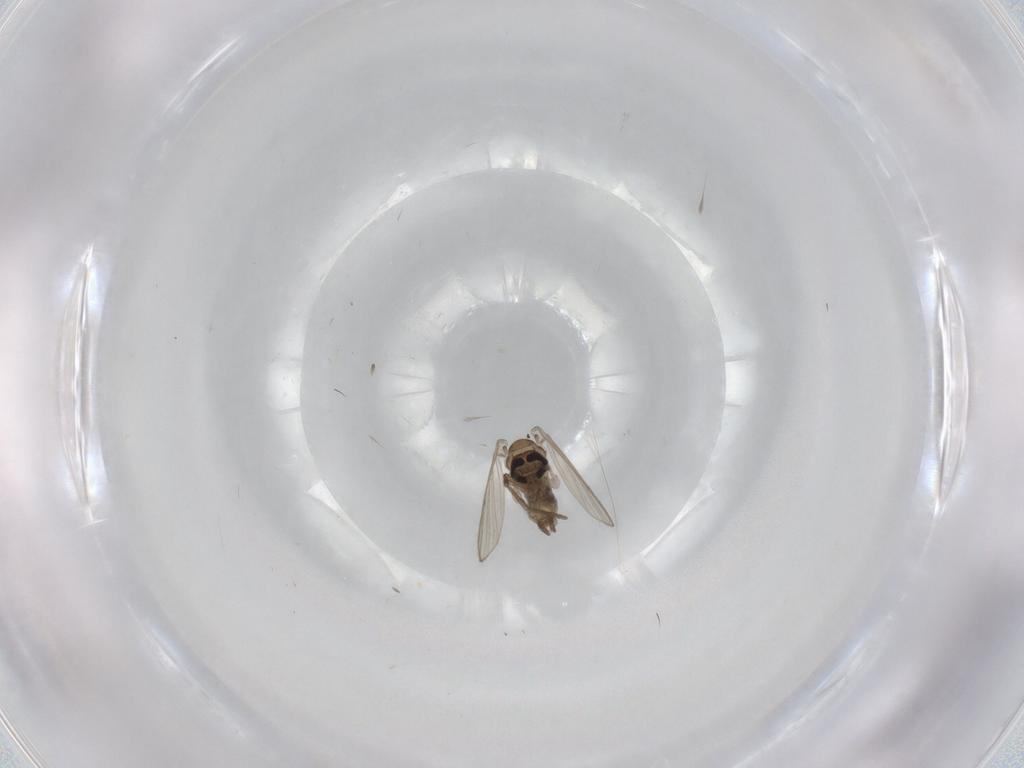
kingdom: Animalia
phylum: Arthropoda
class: Insecta
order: Diptera
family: Psychodidae
